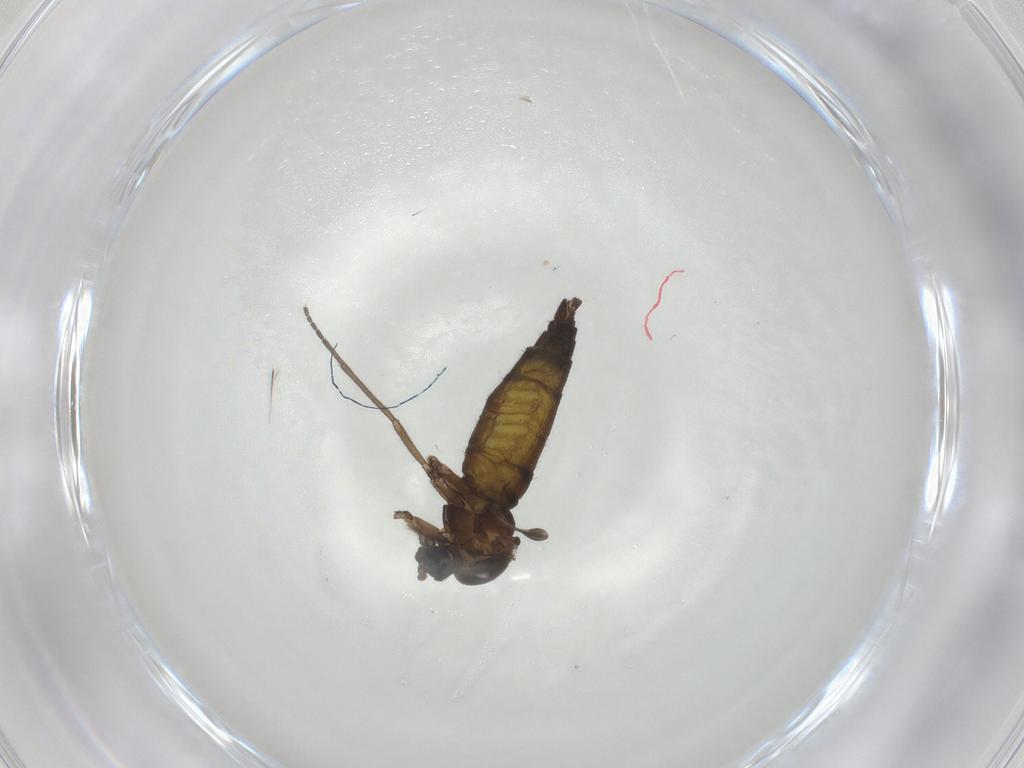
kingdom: Animalia
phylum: Arthropoda
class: Insecta
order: Diptera
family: Sciaridae
